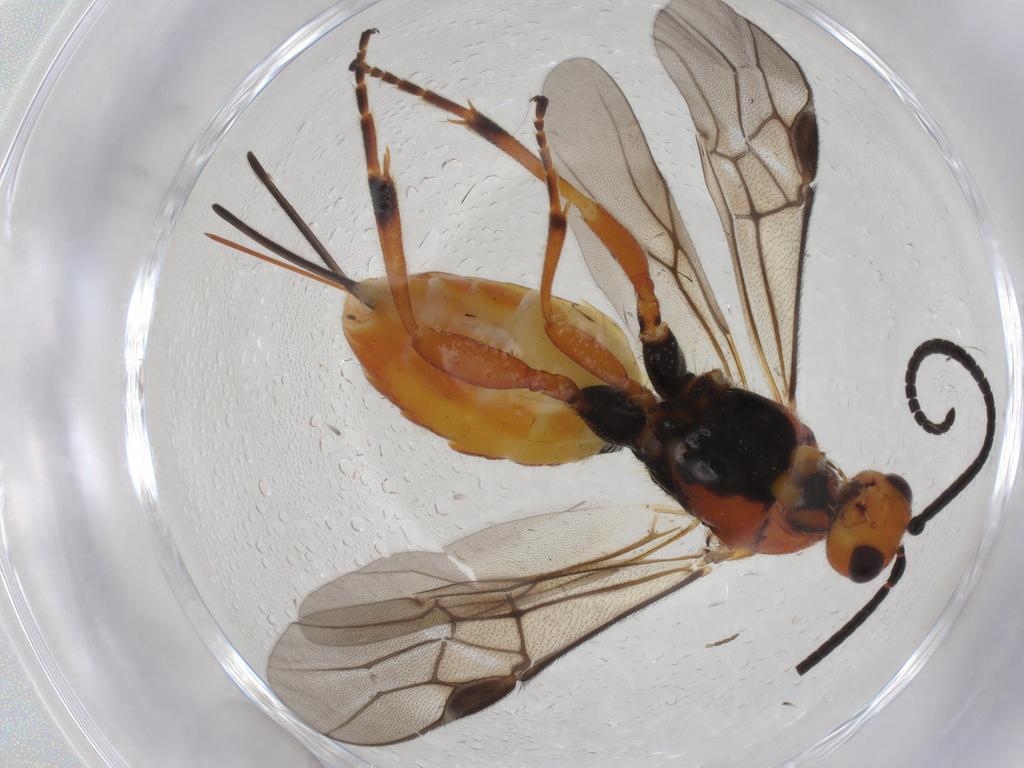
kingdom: Animalia
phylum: Arthropoda
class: Insecta
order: Hymenoptera
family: Braconidae
